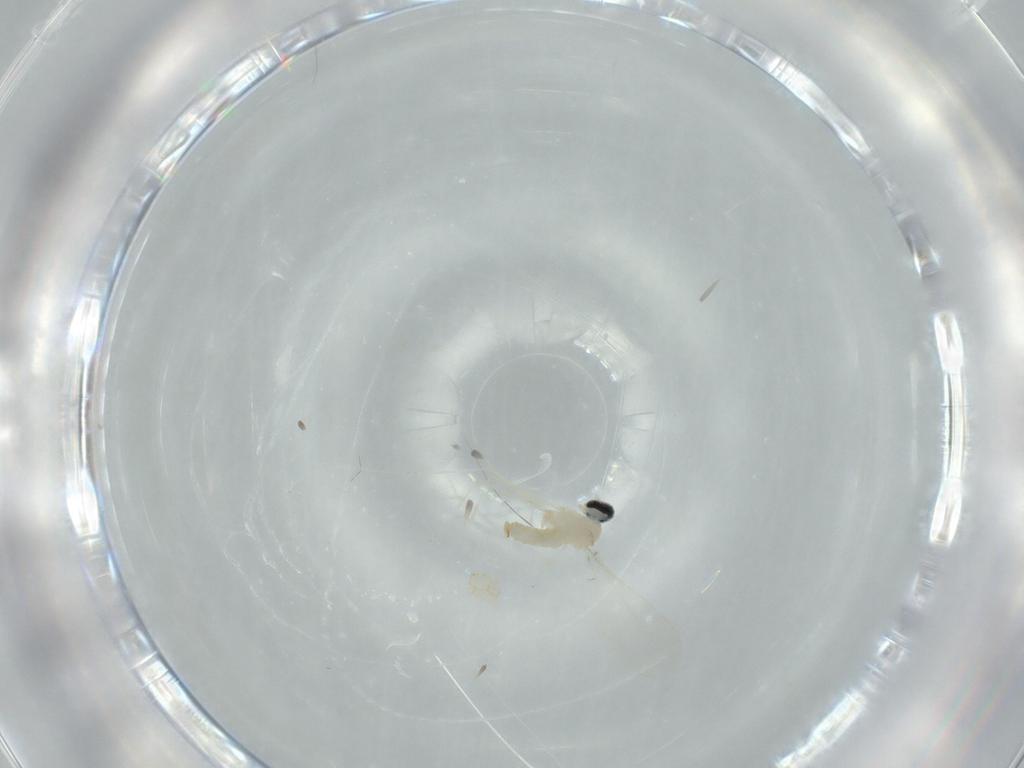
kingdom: Animalia
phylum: Arthropoda
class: Insecta
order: Diptera
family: Cecidomyiidae
